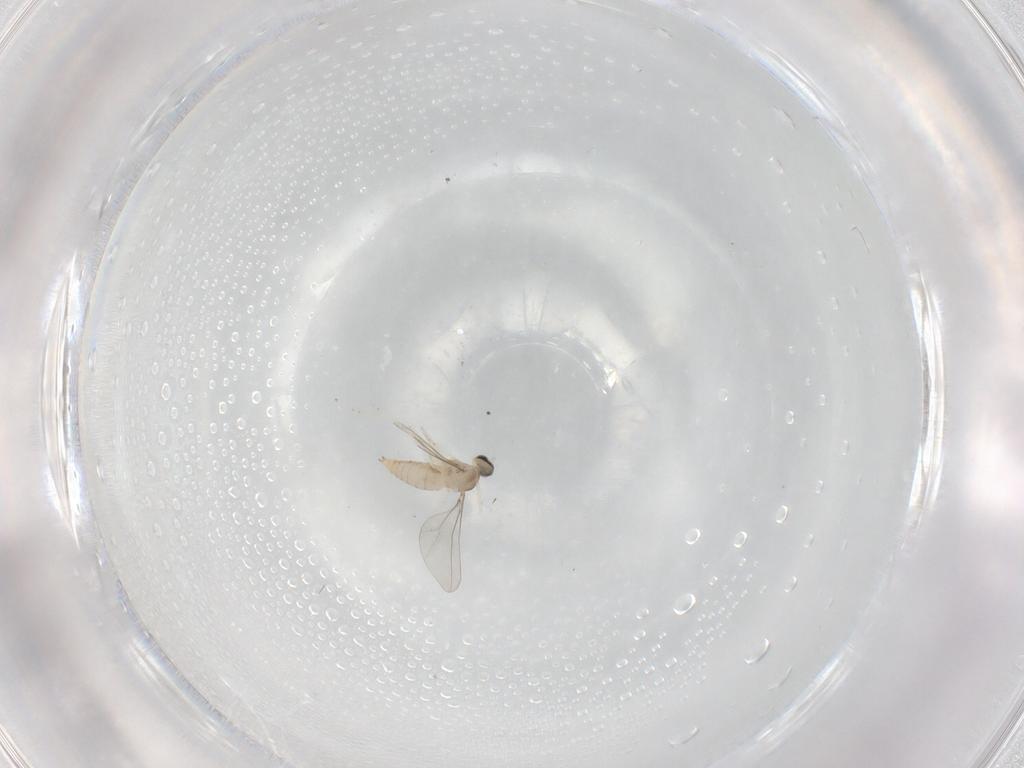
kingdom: Animalia
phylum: Arthropoda
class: Insecta
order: Diptera
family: Cecidomyiidae
